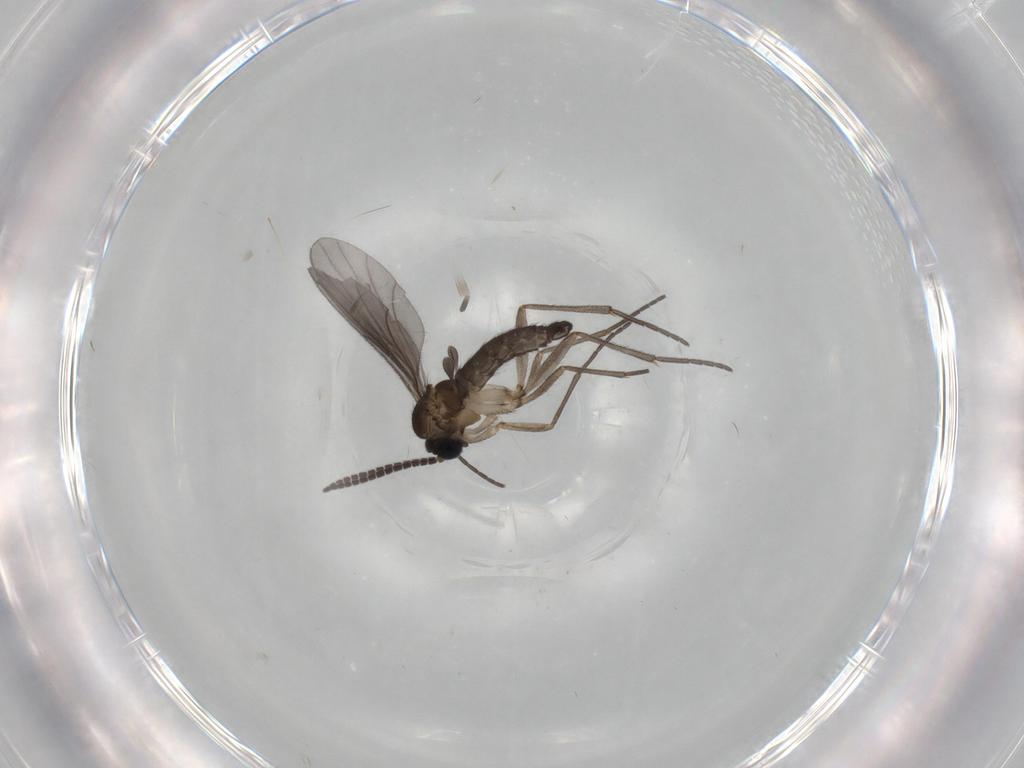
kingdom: Animalia
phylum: Arthropoda
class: Insecta
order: Diptera
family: Sciaridae
